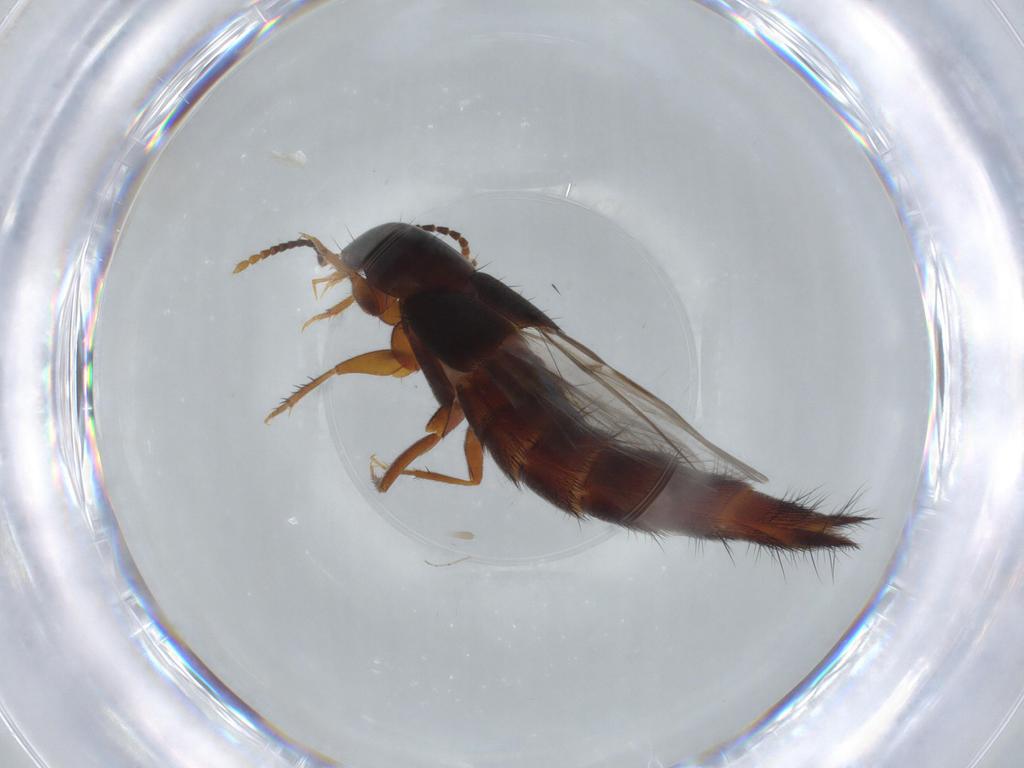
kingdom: Animalia
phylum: Arthropoda
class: Insecta
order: Coleoptera
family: Staphylinidae
